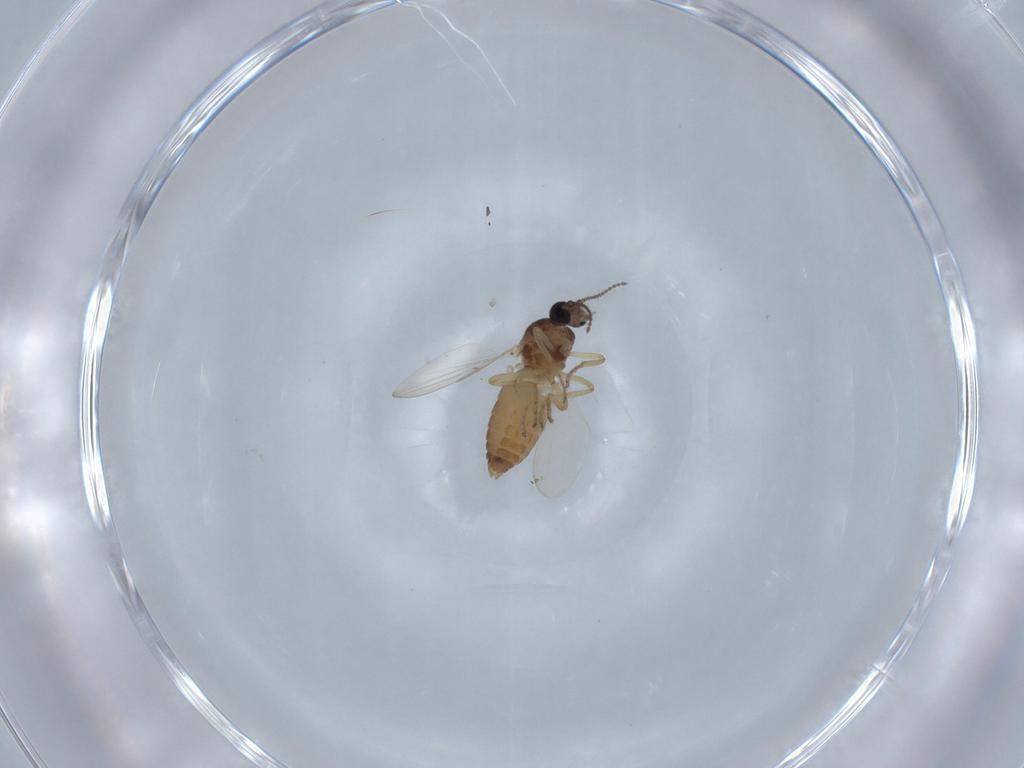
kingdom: Animalia
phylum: Arthropoda
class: Insecta
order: Diptera
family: Ceratopogonidae
